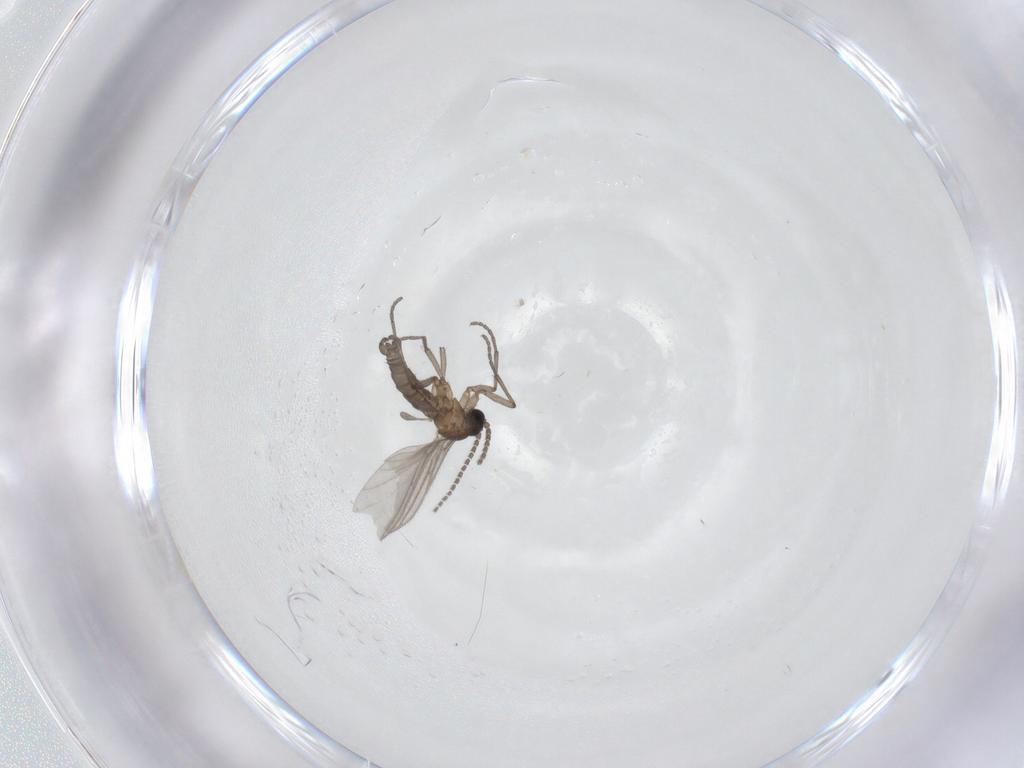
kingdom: Animalia
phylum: Arthropoda
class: Insecta
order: Diptera
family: Sciaridae
